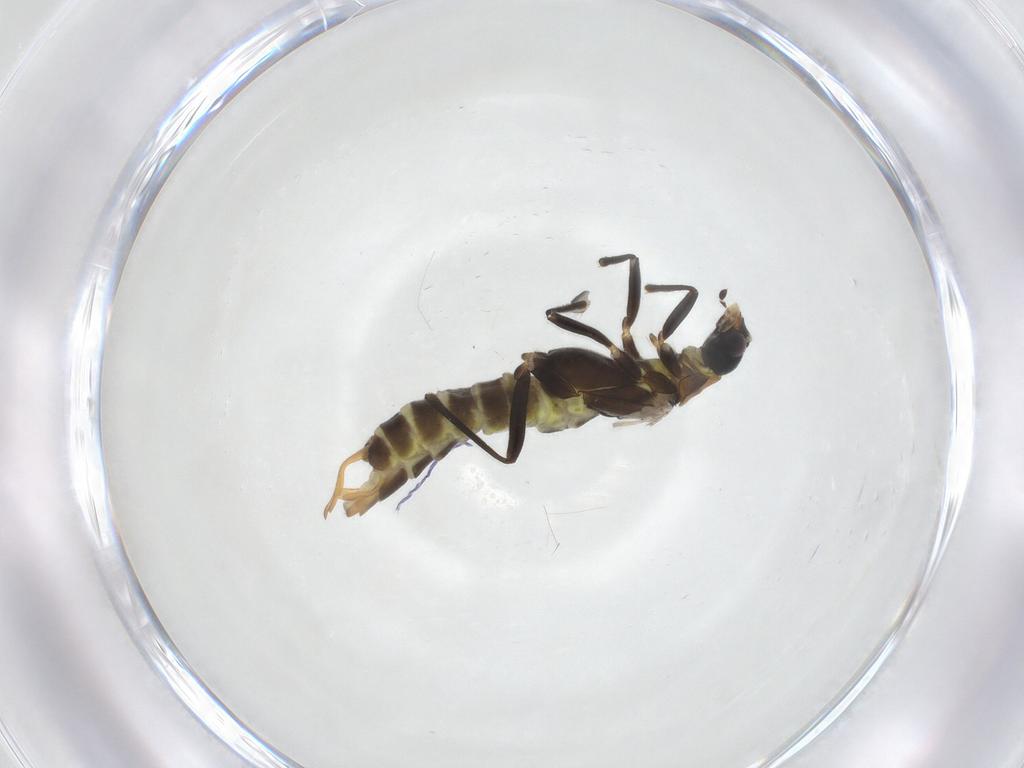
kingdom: Animalia
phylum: Arthropoda
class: Insecta
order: Coleoptera
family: Cantharidae
